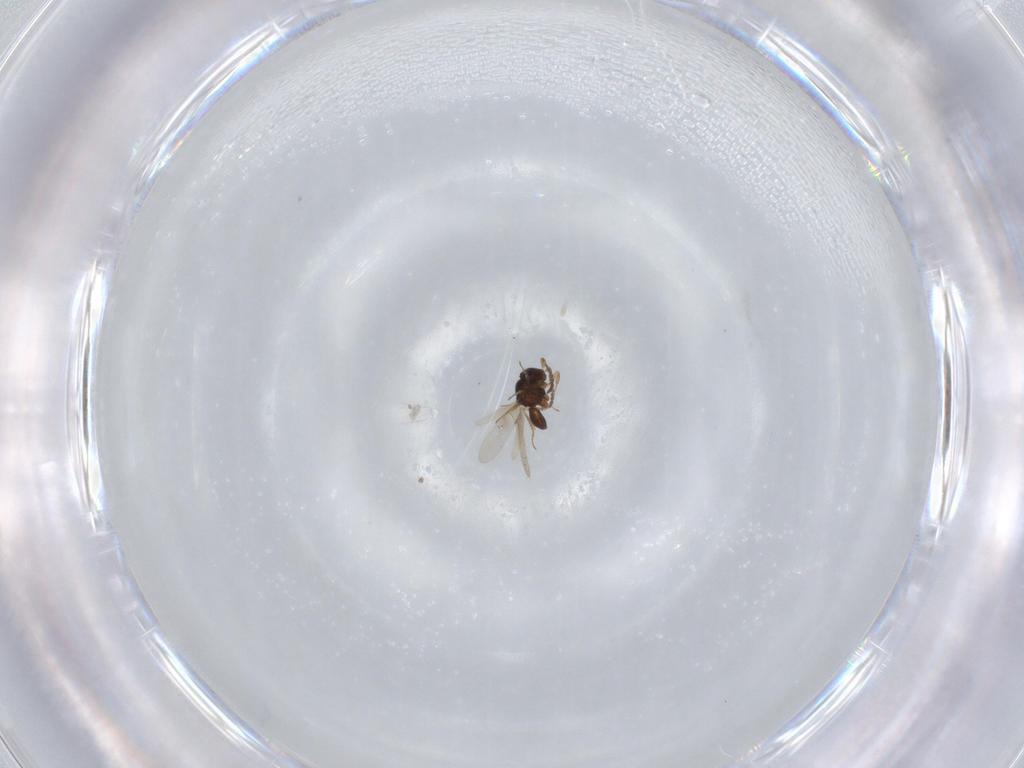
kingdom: Animalia
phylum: Arthropoda
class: Insecta
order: Hymenoptera
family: Scelionidae
